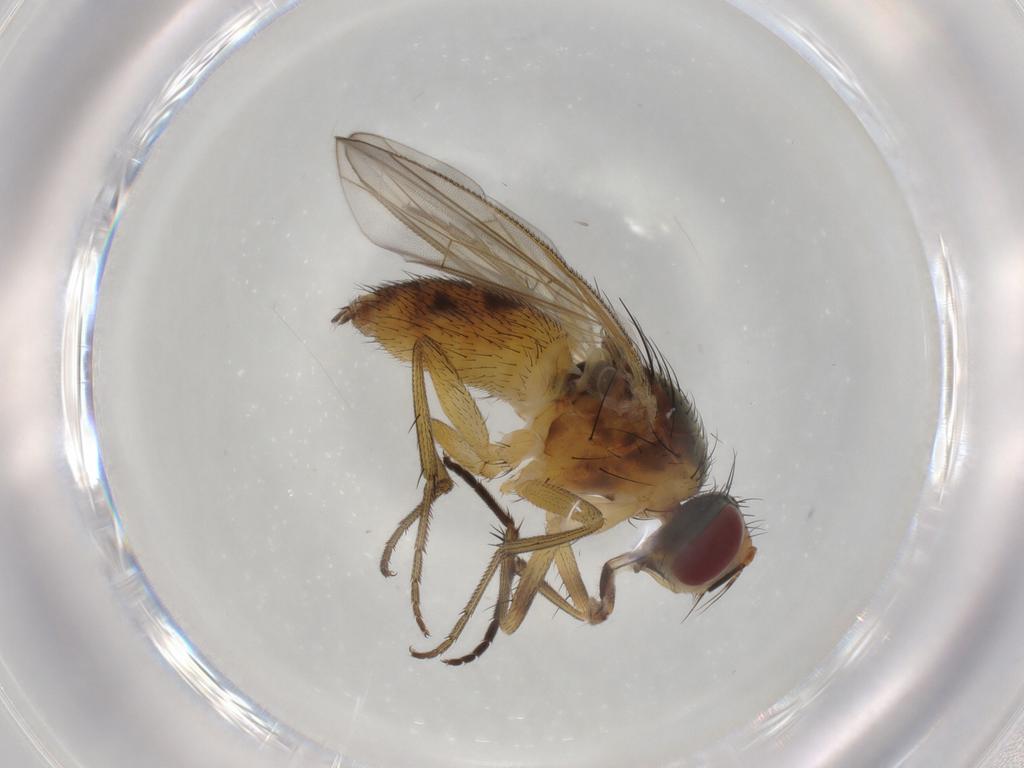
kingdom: Animalia
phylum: Arthropoda
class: Insecta
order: Diptera
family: Muscidae
